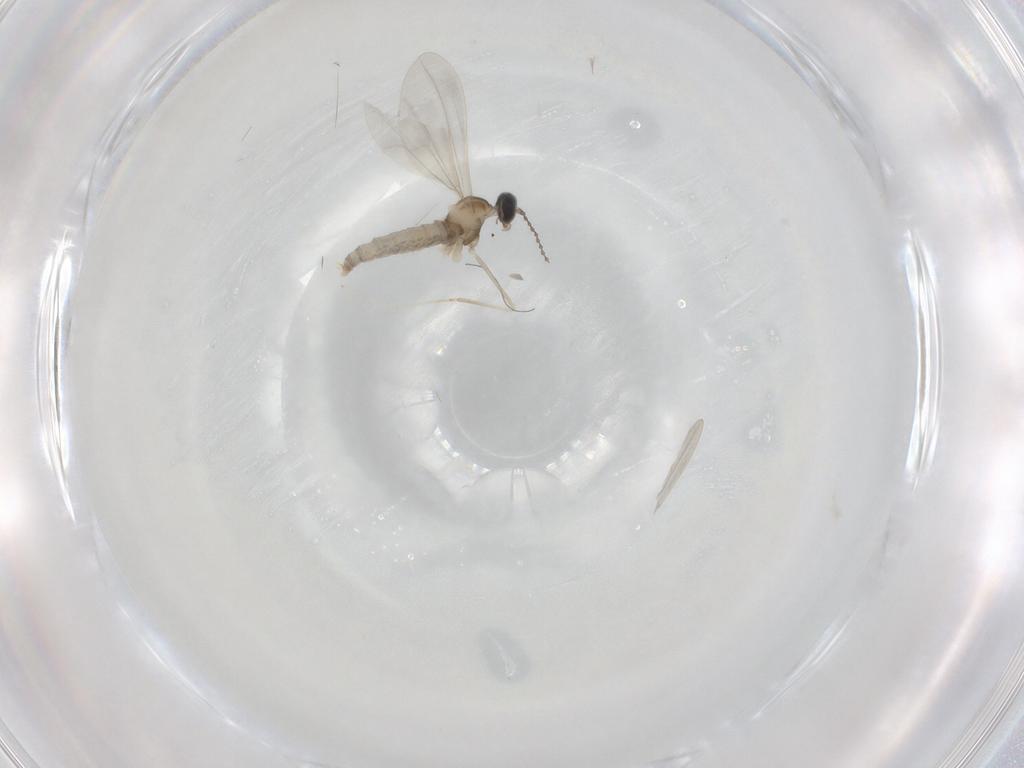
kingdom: Animalia
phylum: Arthropoda
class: Insecta
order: Diptera
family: Cecidomyiidae
